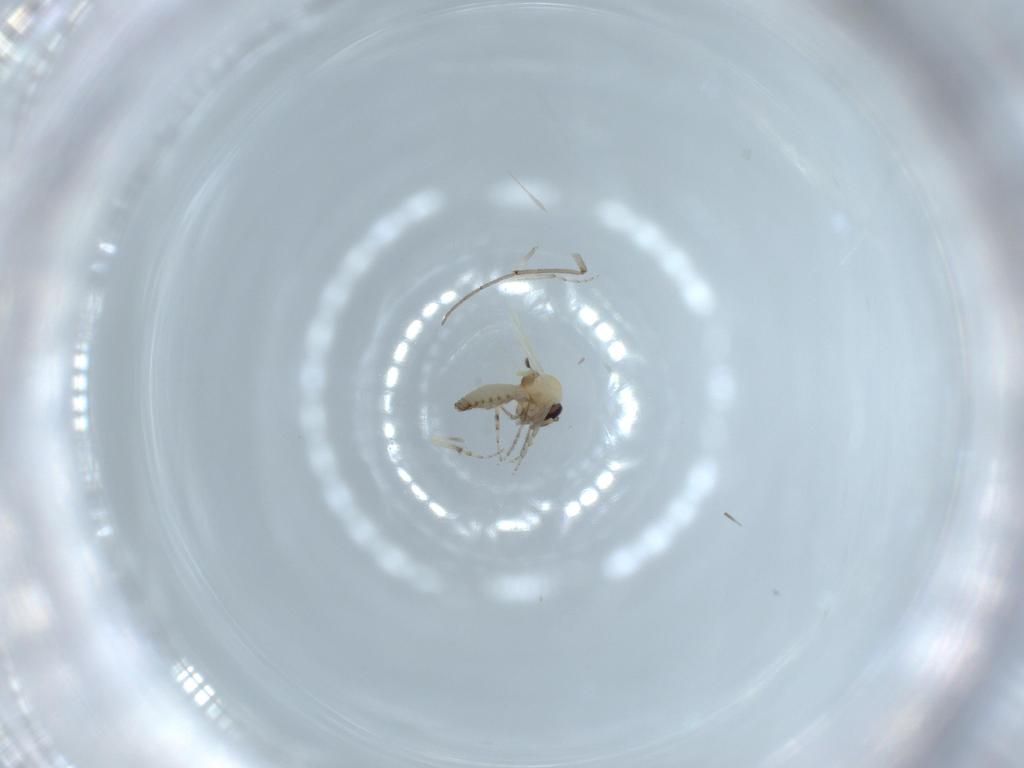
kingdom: Animalia
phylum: Arthropoda
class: Insecta
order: Diptera
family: Chironomidae
